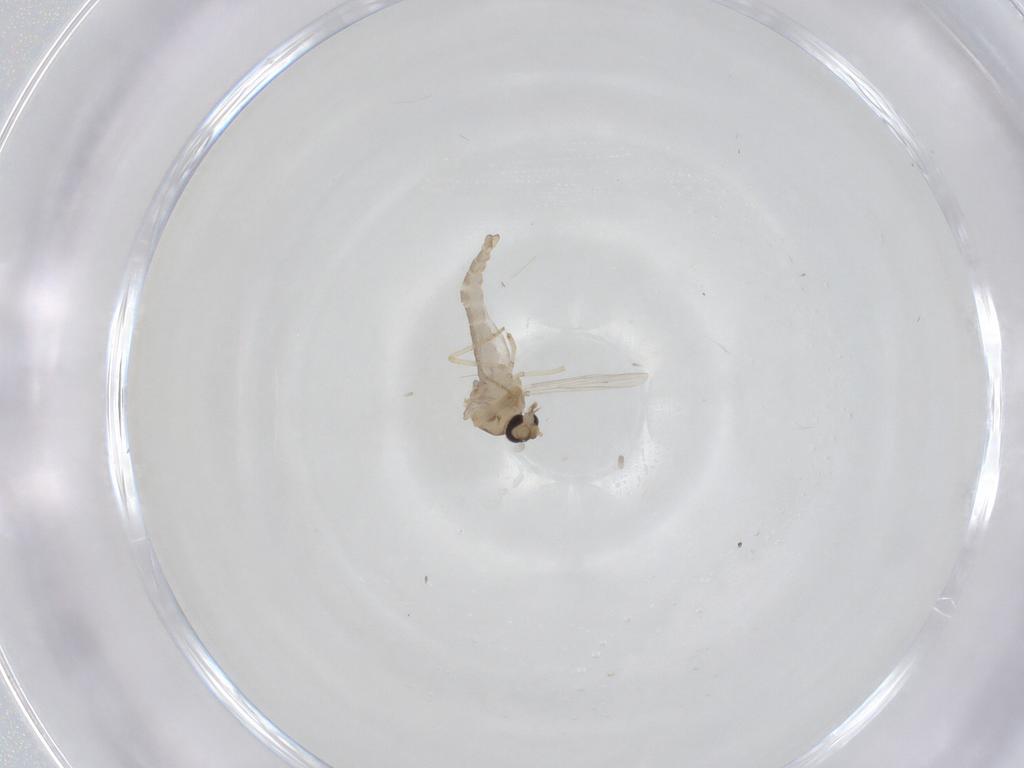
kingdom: Animalia
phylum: Arthropoda
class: Insecta
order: Diptera
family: Ceratopogonidae
